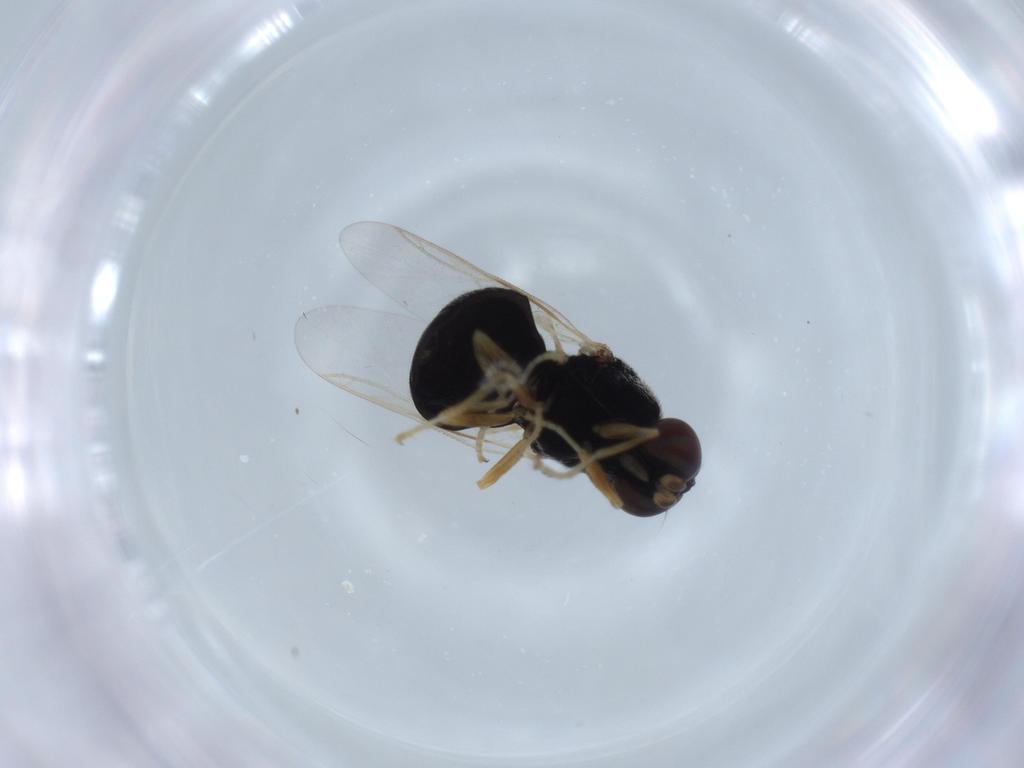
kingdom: Animalia
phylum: Arthropoda
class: Insecta
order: Diptera
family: Stratiomyidae
